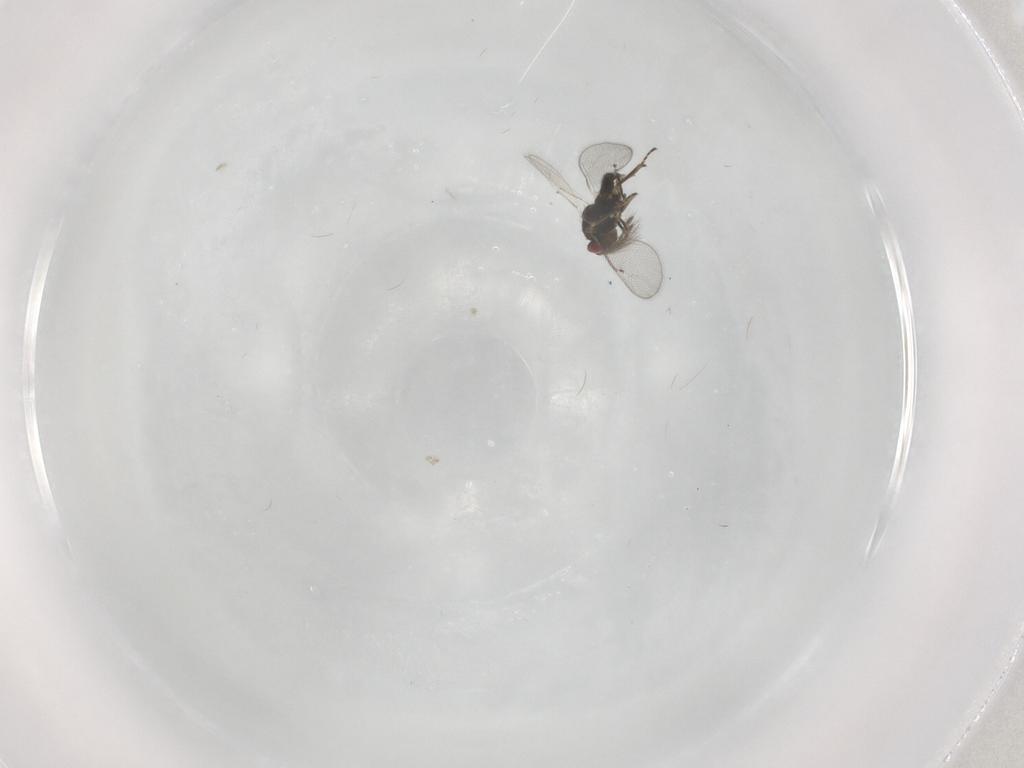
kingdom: Animalia
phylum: Arthropoda
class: Insecta
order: Hymenoptera
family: Eulophidae
